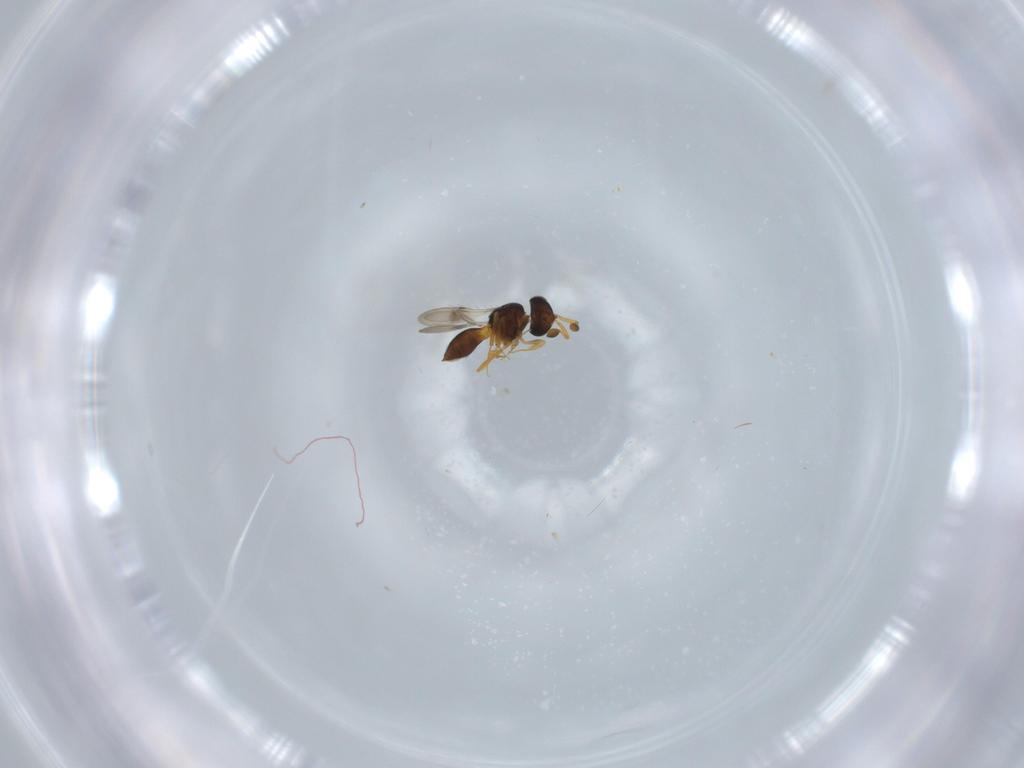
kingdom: Animalia
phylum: Arthropoda
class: Insecta
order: Hymenoptera
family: Scelionidae
